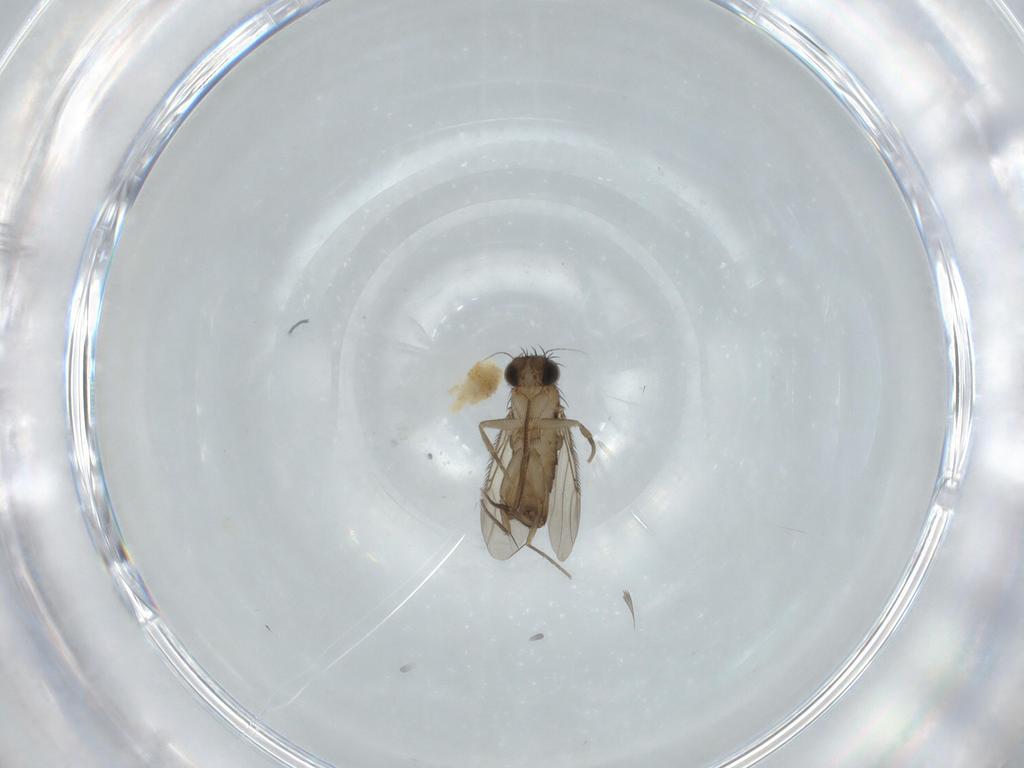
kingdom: Animalia
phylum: Arthropoda
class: Insecta
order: Diptera
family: Phoridae
